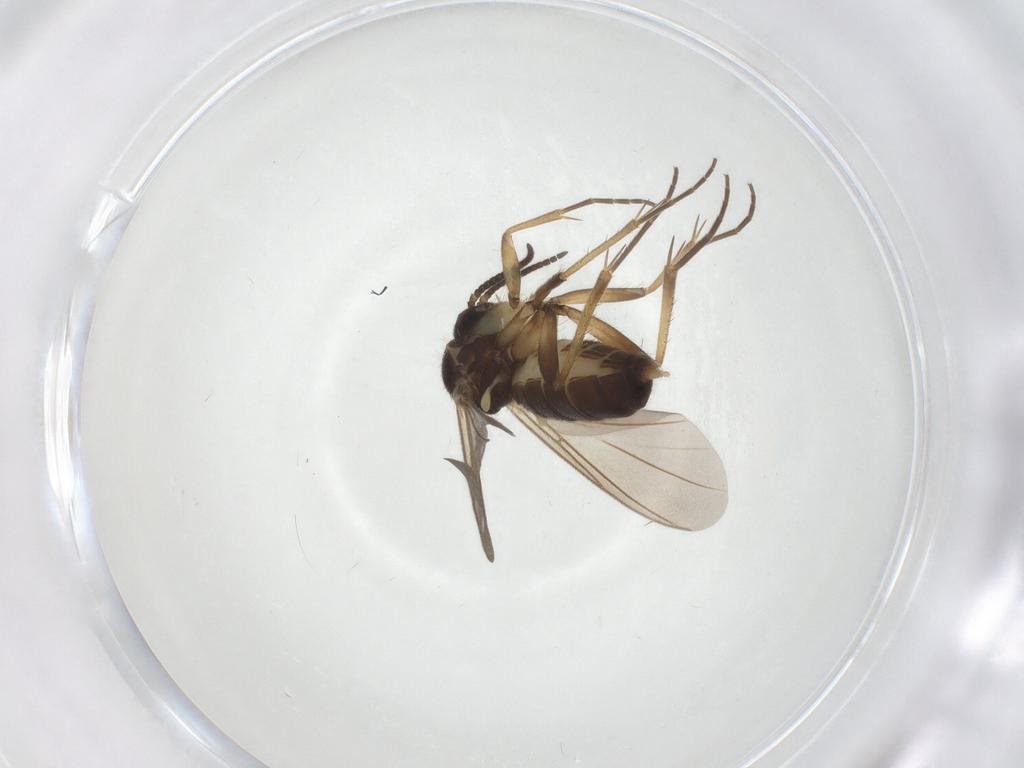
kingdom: Animalia
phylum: Arthropoda
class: Insecta
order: Diptera
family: Mycetophilidae
